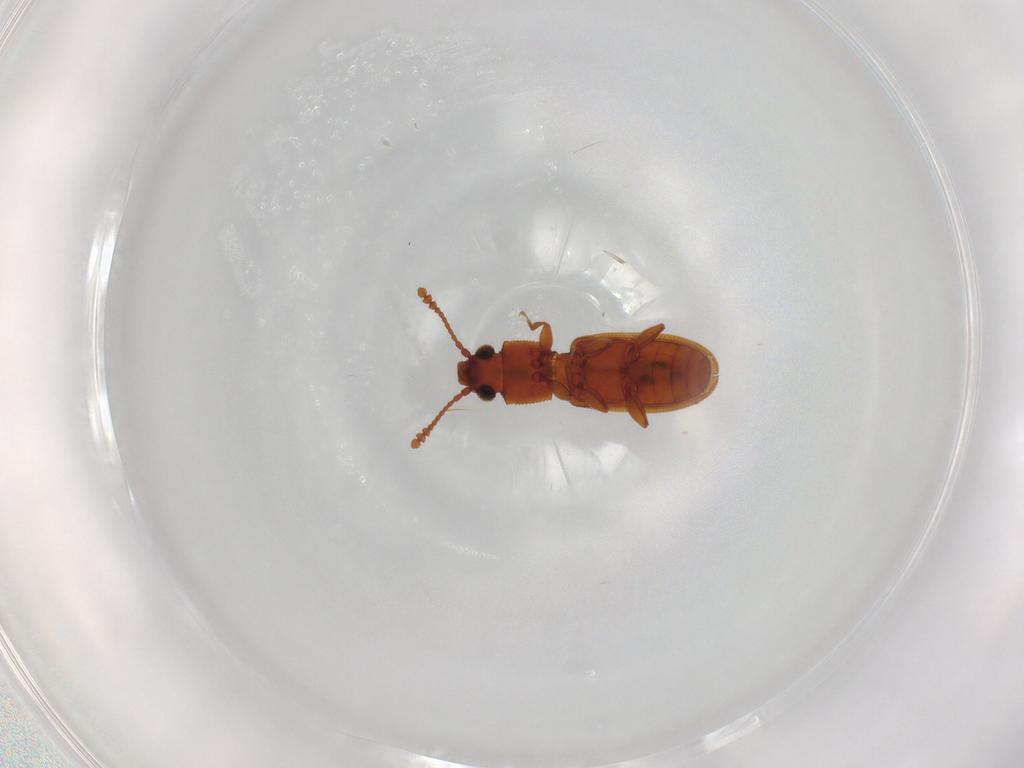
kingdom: Animalia
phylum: Arthropoda
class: Insecta
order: Coleoptera
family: Silvanidae
